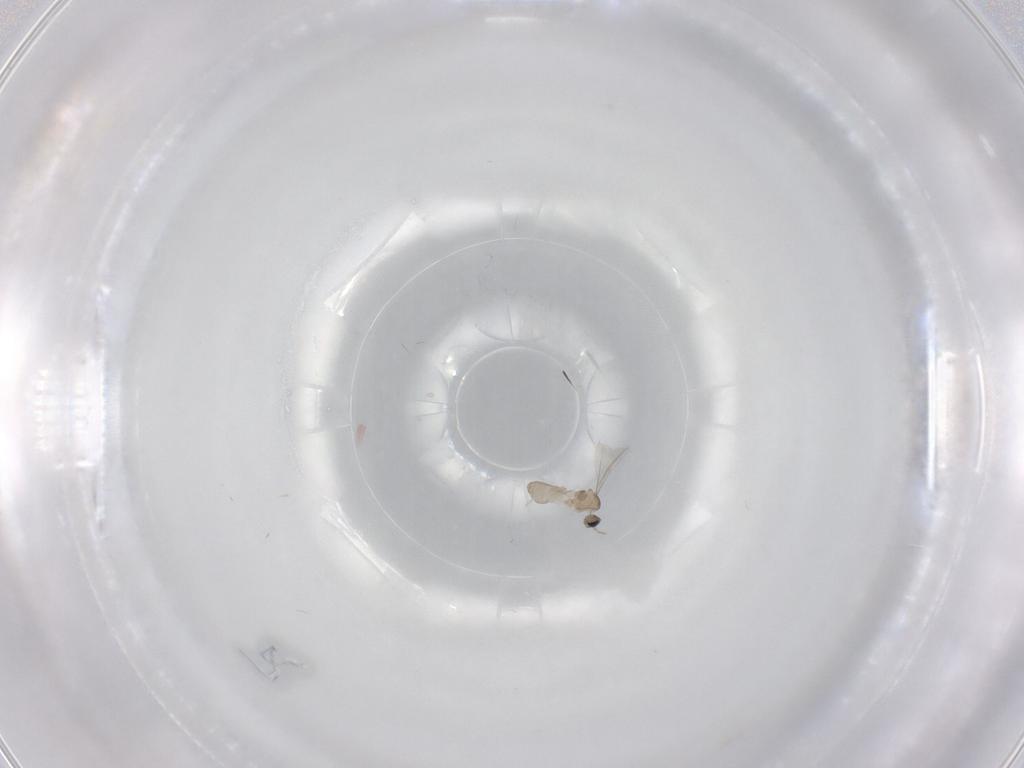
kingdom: Animalia
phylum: Arthropoda
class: Insecta
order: Diptera
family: Cecidomyiidae
